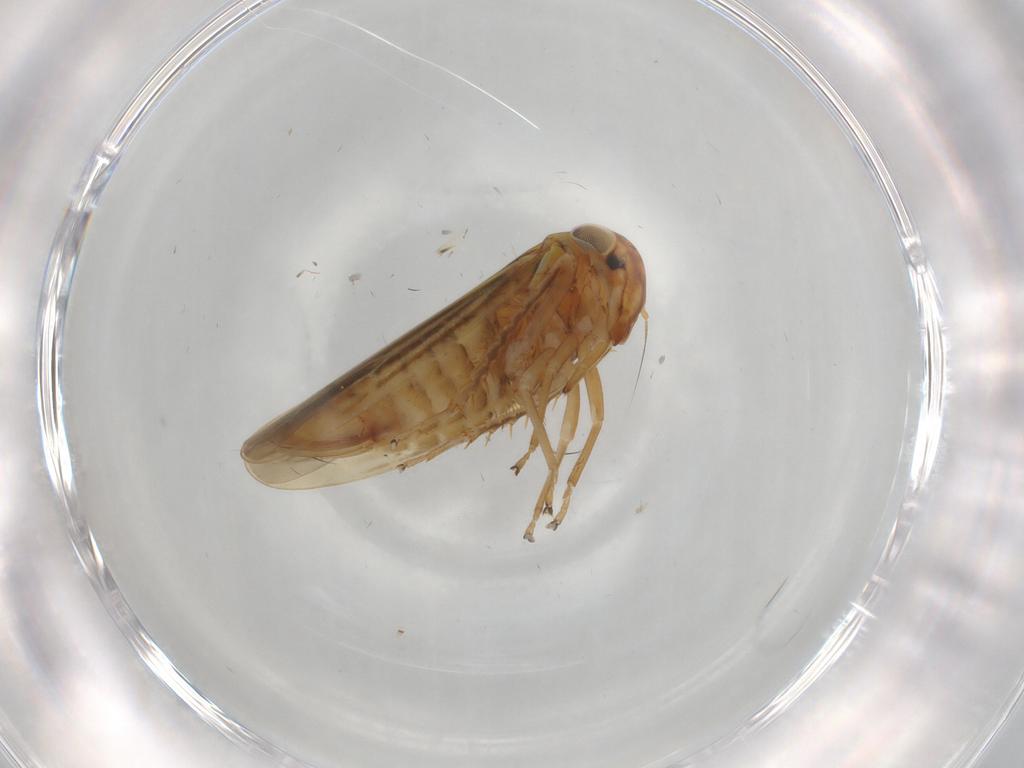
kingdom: Animalia
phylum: Arthropoda
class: Insecta
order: Hemiptera
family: Cicadellidae
